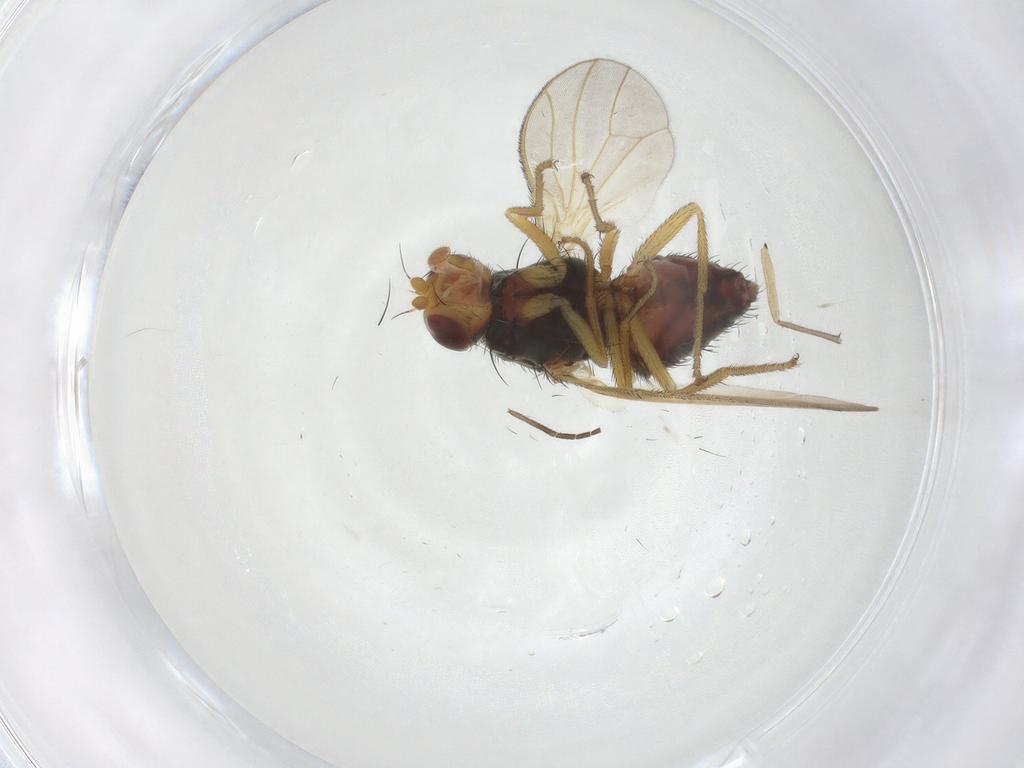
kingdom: Animalia
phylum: Arthropoda
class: Insecta
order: Diptera
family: Heleomyzidae
